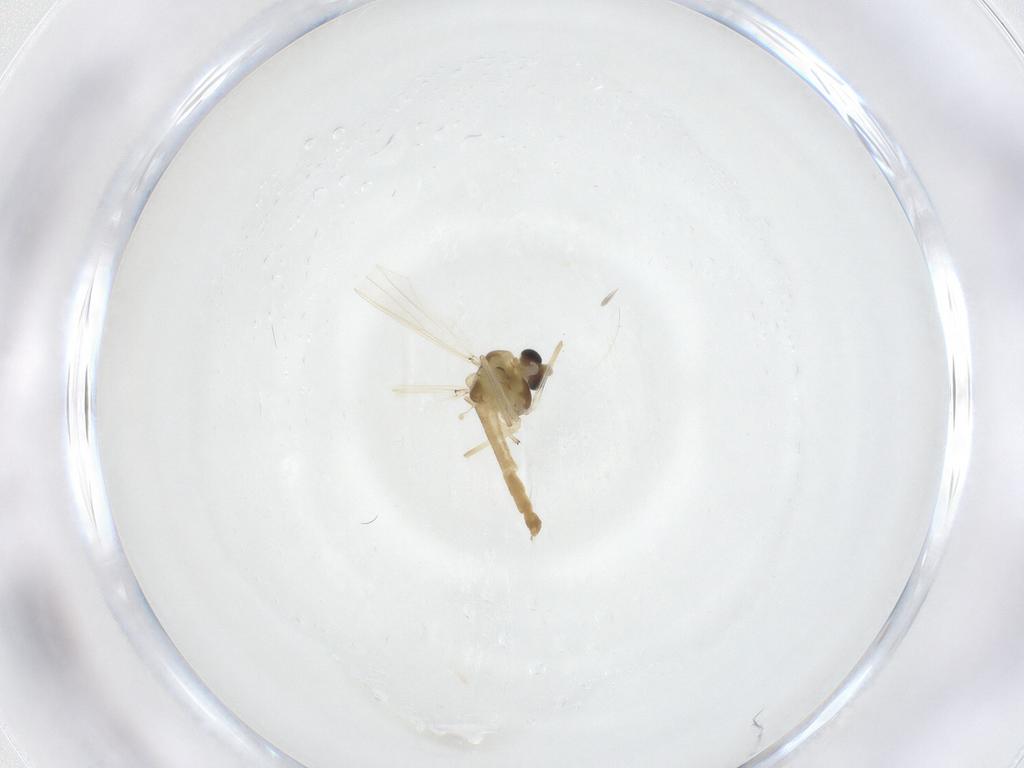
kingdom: Animalia
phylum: Arthropoda
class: Insecta
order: Diptera
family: Chironomidae
